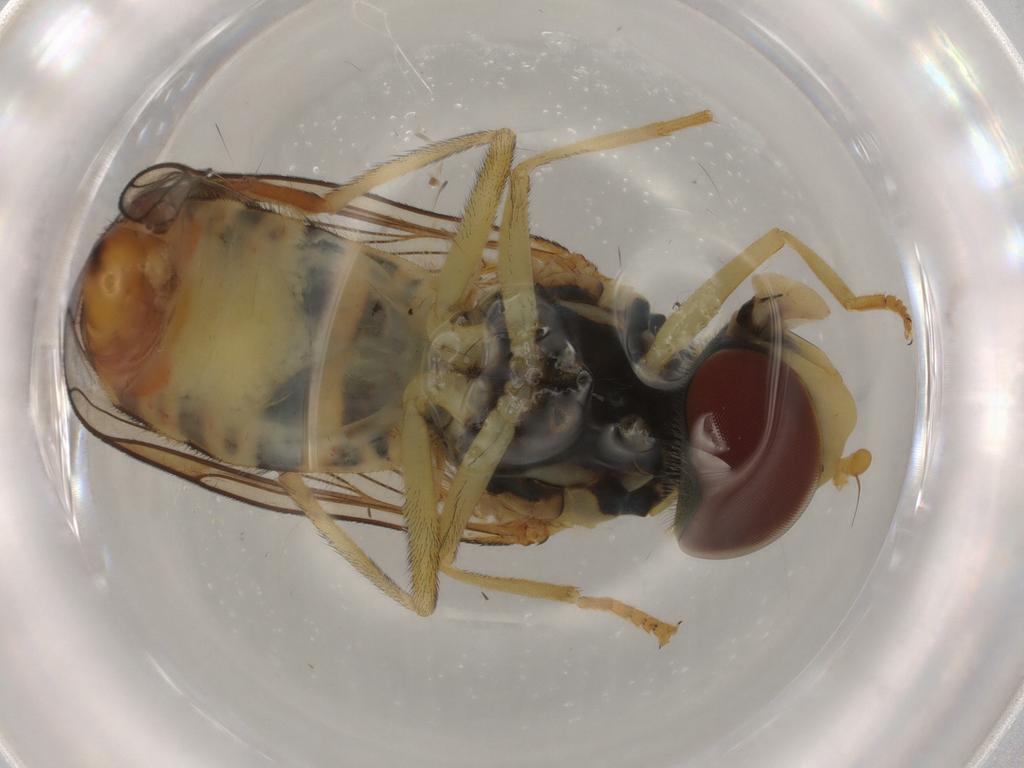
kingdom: Animalia
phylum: Arthropoda
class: Insecta
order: Diptera
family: Syrphidae
